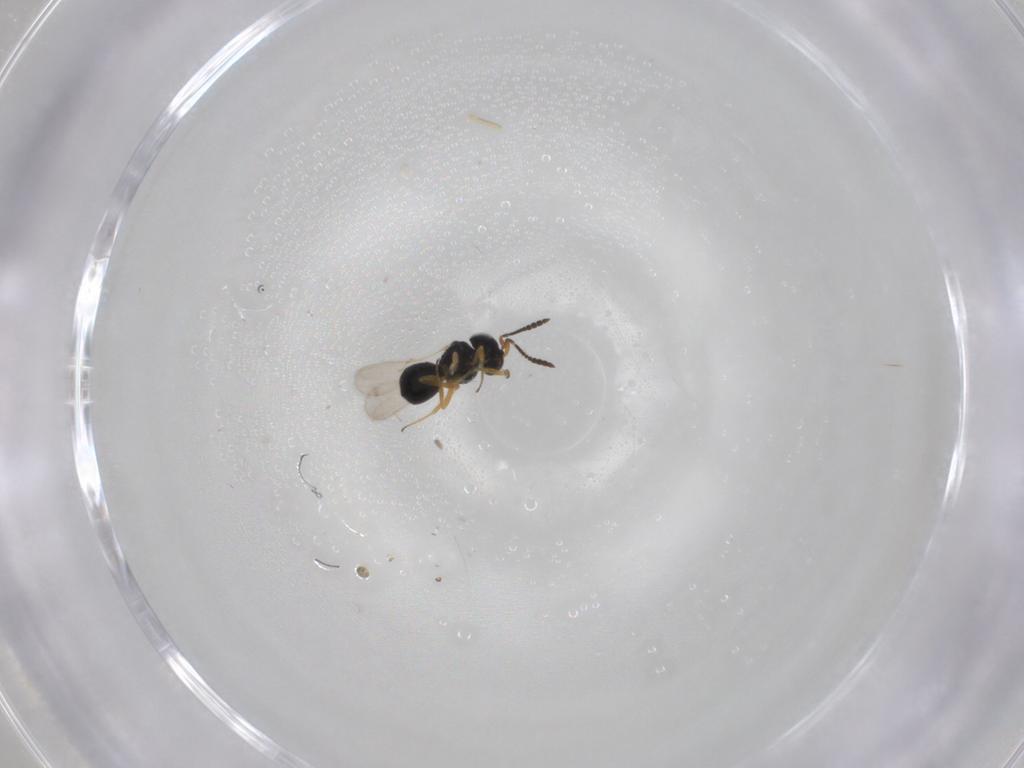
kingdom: Animalia
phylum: Arthropoda
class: Insecta
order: Hymenoptera
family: Scelionidae
